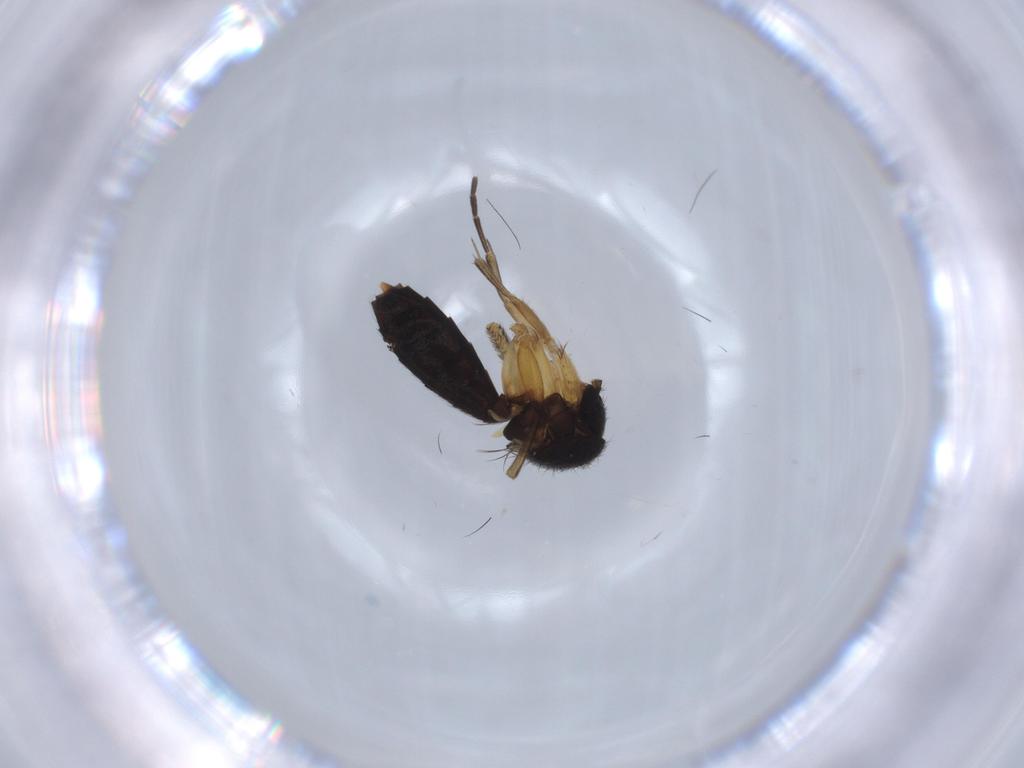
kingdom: Animalia
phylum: Arthropoda
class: Insecta
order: Diptera
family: Mycetophilidae
